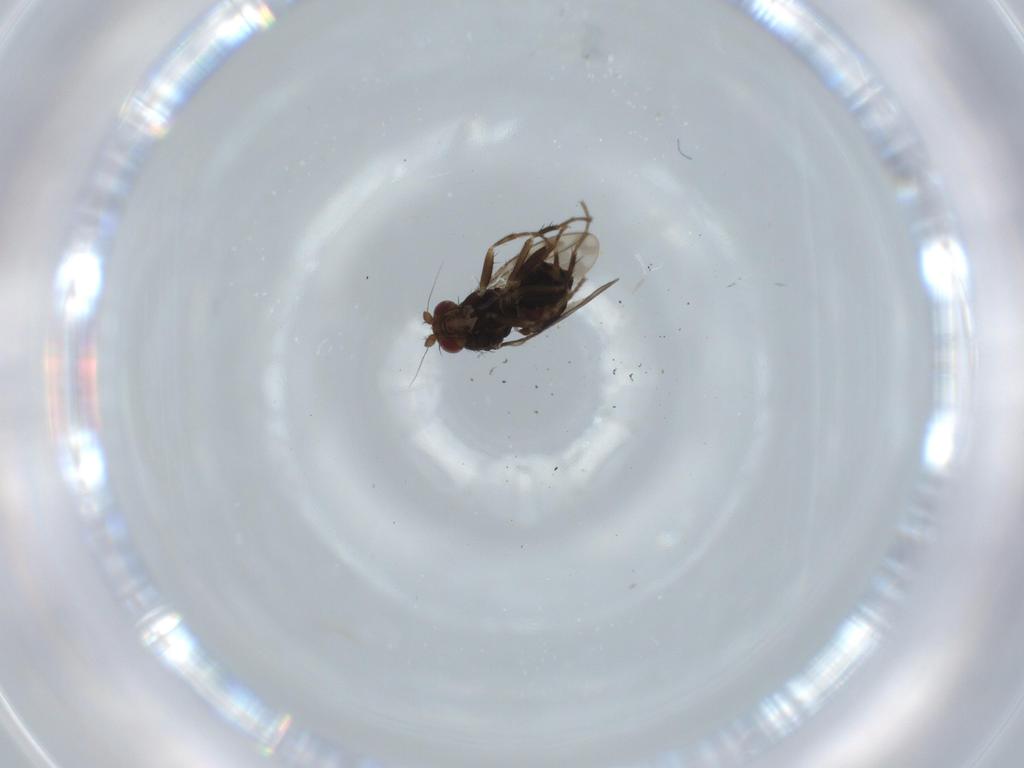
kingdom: Animalia
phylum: Arthropoda
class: Insecta
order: Diptera
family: Sphaeroceridae
